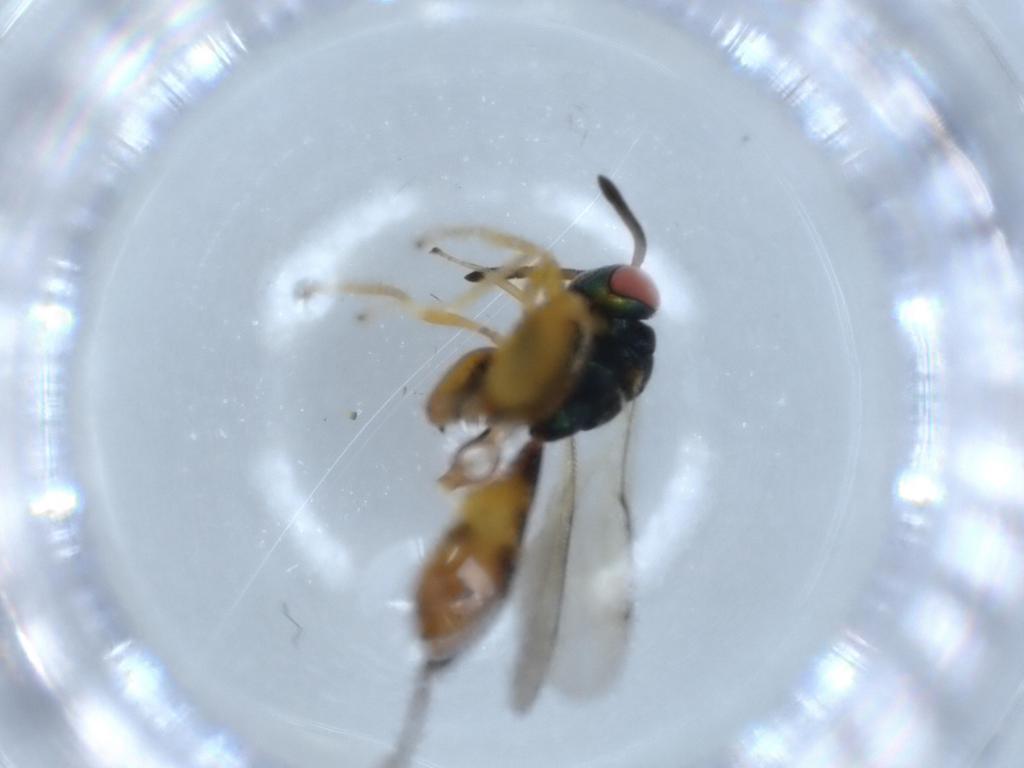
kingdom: Animalia
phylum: Arthropoda
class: Insecta
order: Hymenoptera
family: Torymidae
